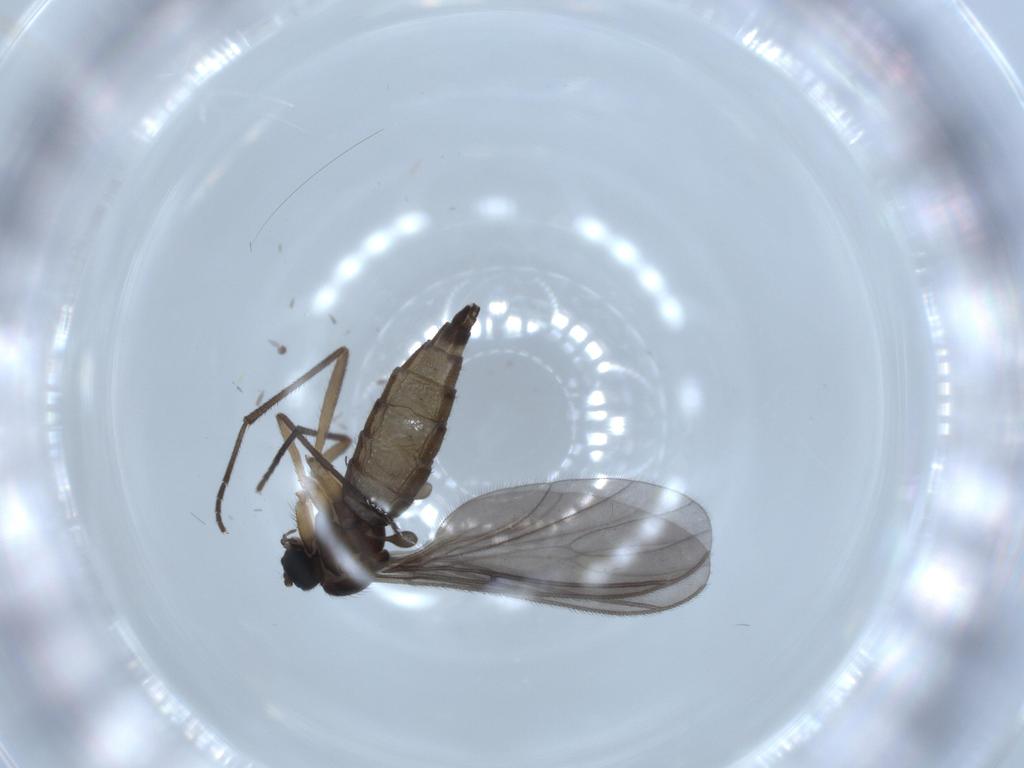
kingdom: Animalia
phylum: Arthropoda
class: Insecta
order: Diptera
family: Sciaridae
